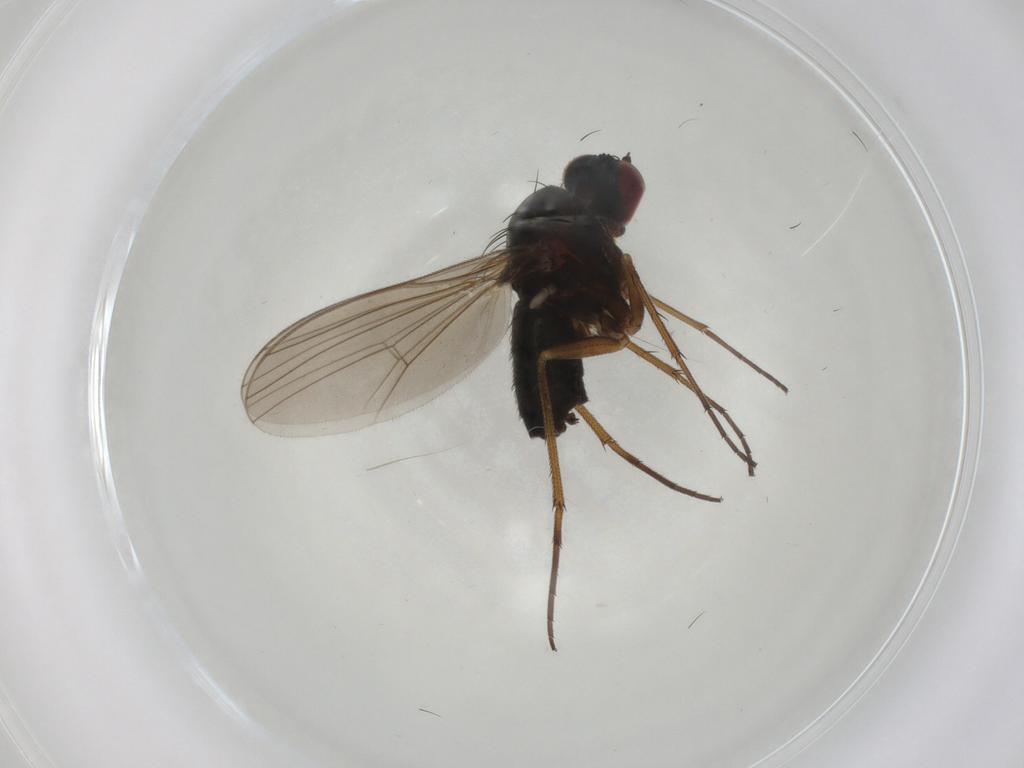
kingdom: Animalia
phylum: Arthropoda
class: Insecta
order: Diptera
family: Dolichopodidae
